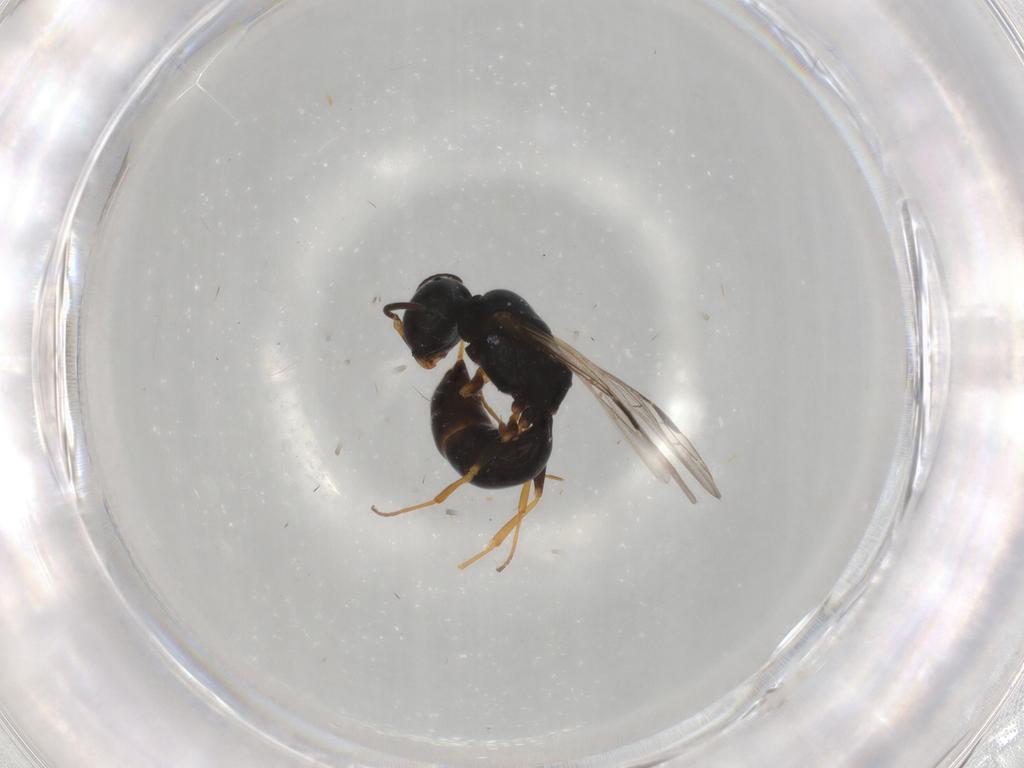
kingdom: Animalia
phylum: Arthropoda
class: Insecta
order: Hymenoptera
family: Crabronidae
